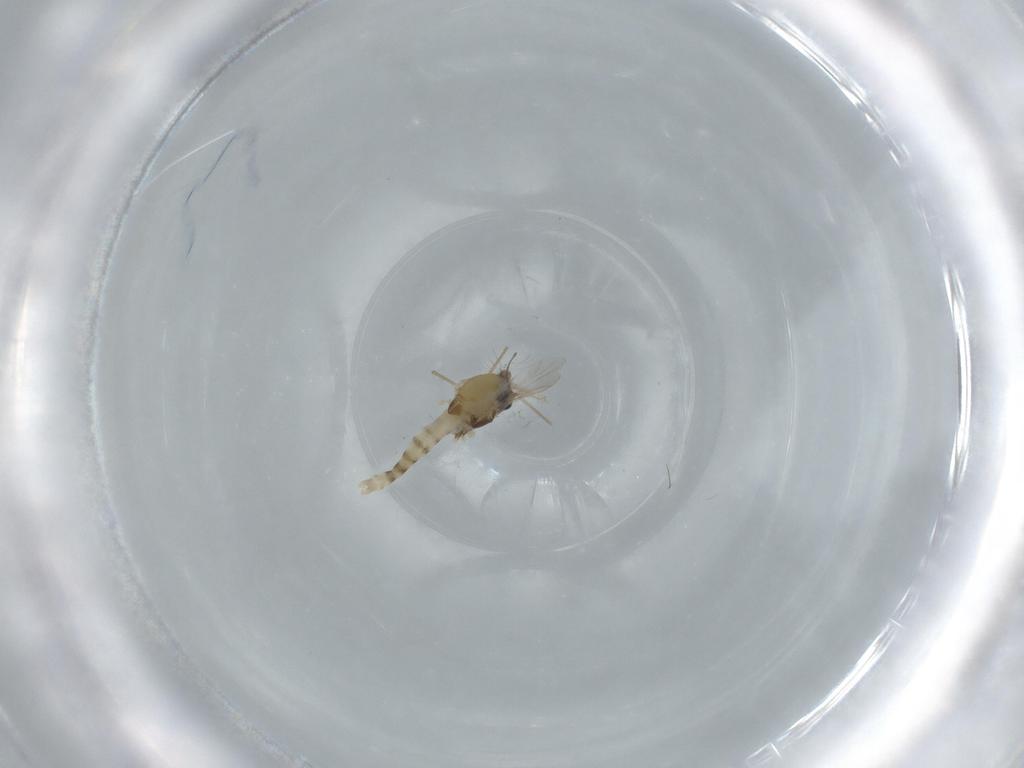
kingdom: Animalia
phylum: Arthropoda
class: Insecta
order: Diptera
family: Chironomidae
